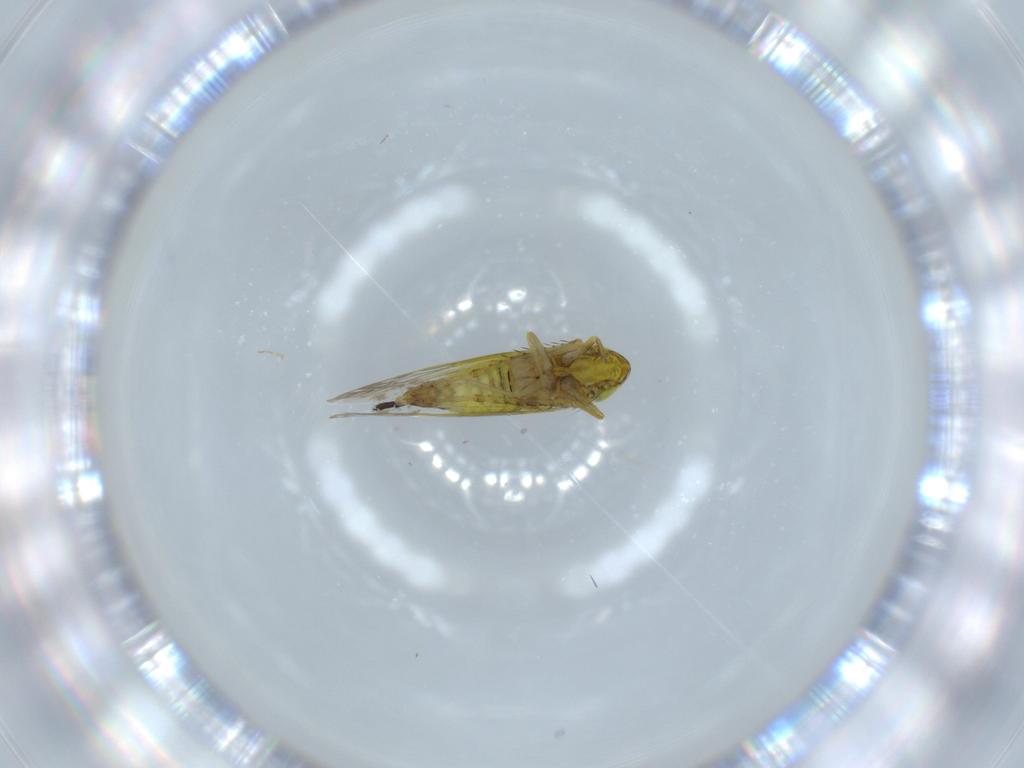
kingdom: Animalia
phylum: Arthropoda
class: Insecta
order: Hemiptera
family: Cicadellidae
